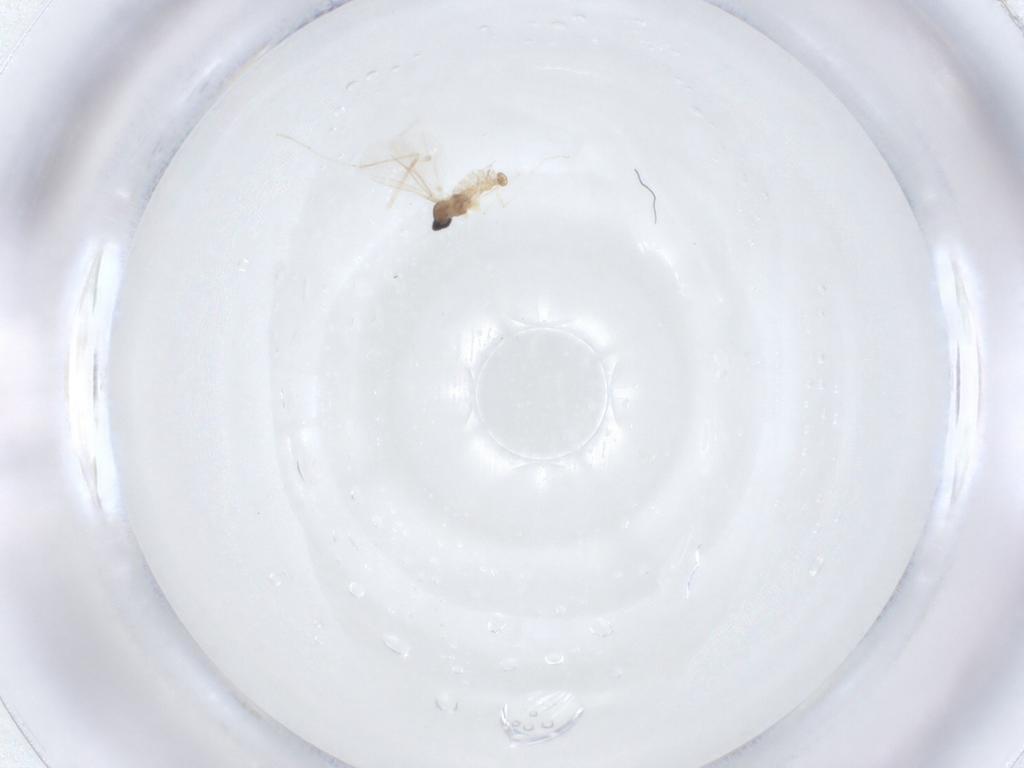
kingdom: Animalia
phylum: Arthropoda
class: Insecta
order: Diptera
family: Cecidomyiidae
